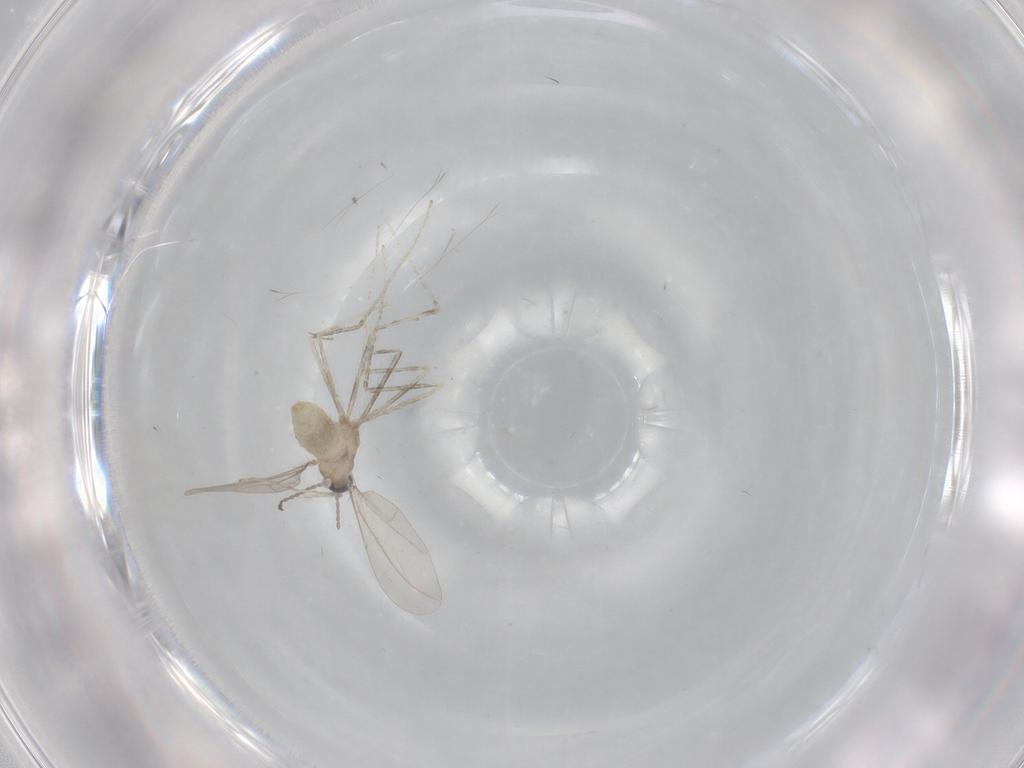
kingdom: Animalia
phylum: Arthropoda
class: Insecta
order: Diptera
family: Cecidomyiidae
